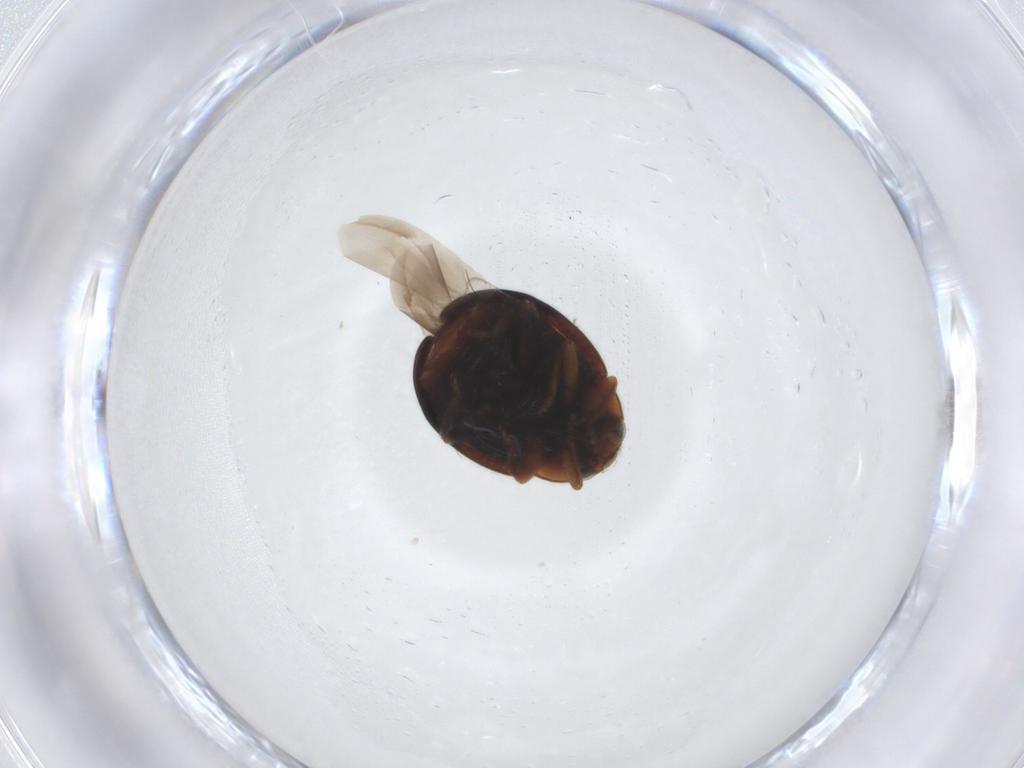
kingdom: Animalia
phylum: Arthropoda
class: Insecta
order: Coleoptera
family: Coccinellidae
